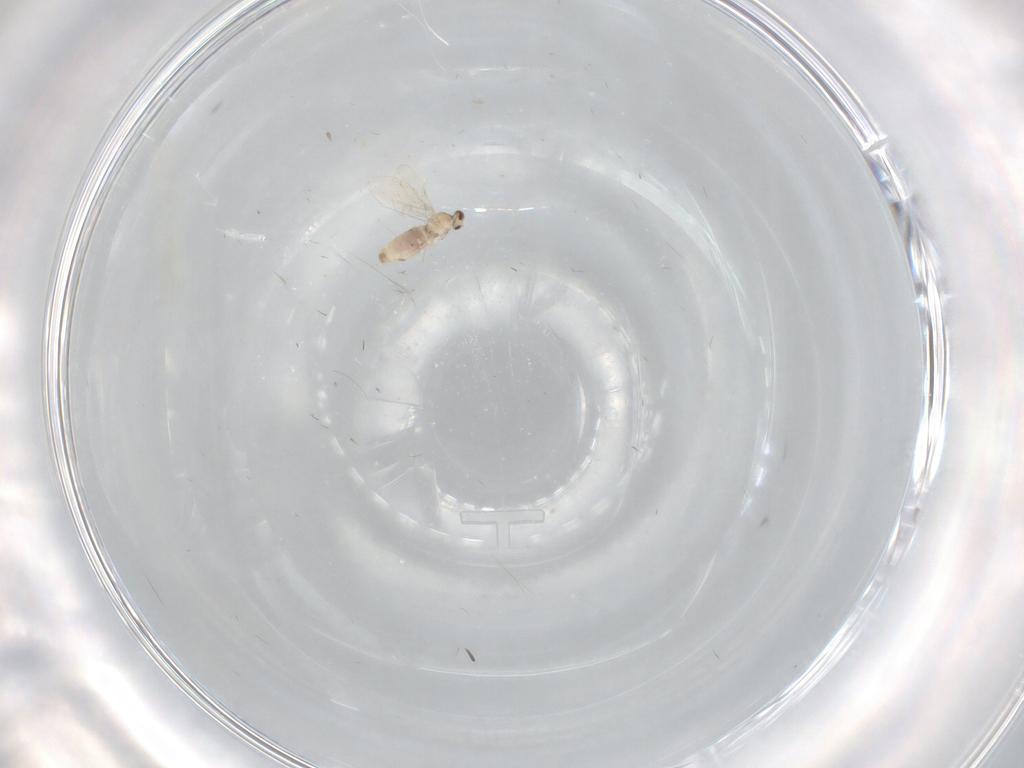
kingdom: Animalia
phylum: Arthropoda
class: Insecta
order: Diptera
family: Cecidomyiidae
